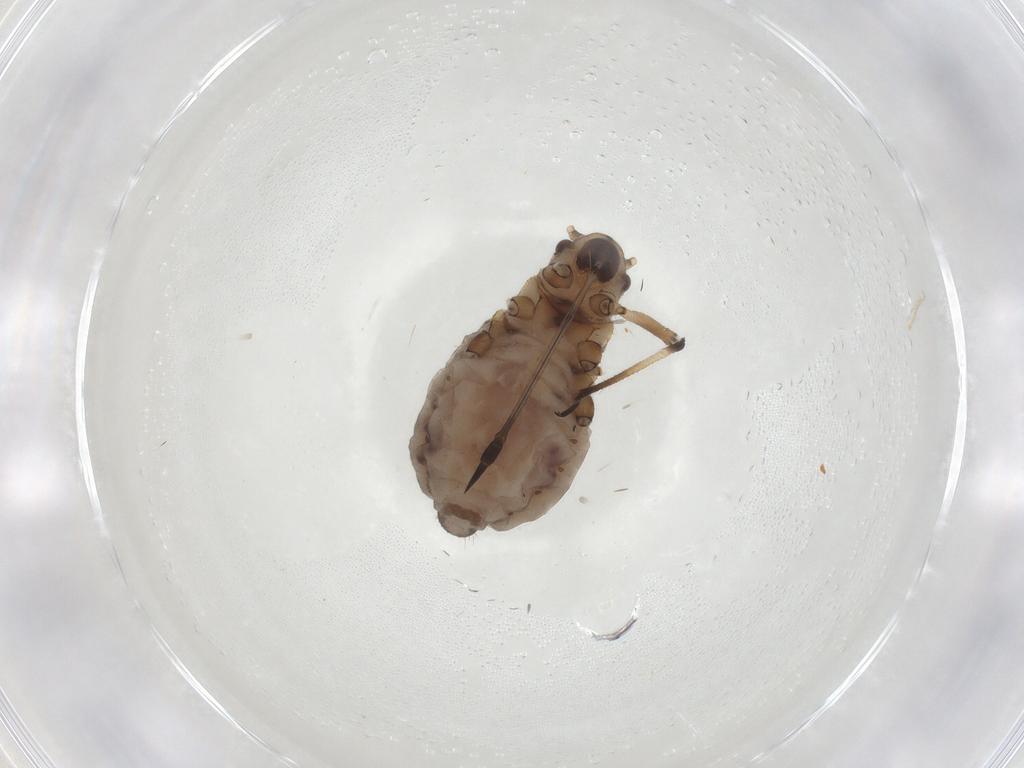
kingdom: Animalia
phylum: Arthropoda
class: Insecta
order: Hemiptera
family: Aphididae
